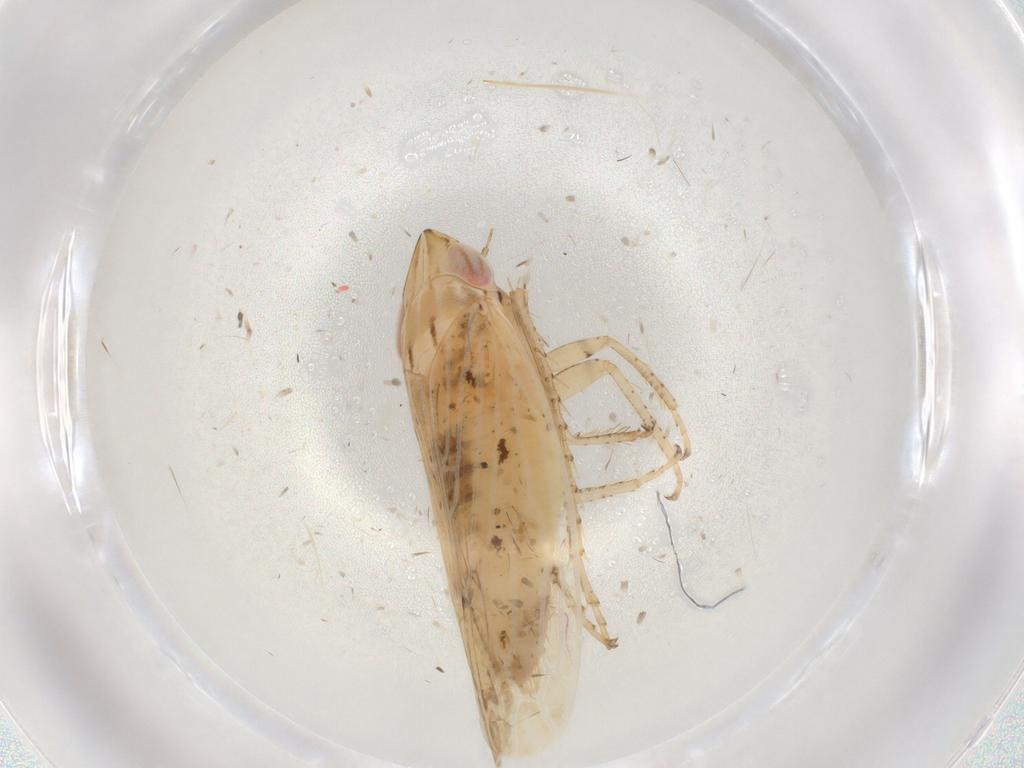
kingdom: Animalia
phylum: Arthropoda
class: Insecta
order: Hemiptera
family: Cicadellidae
